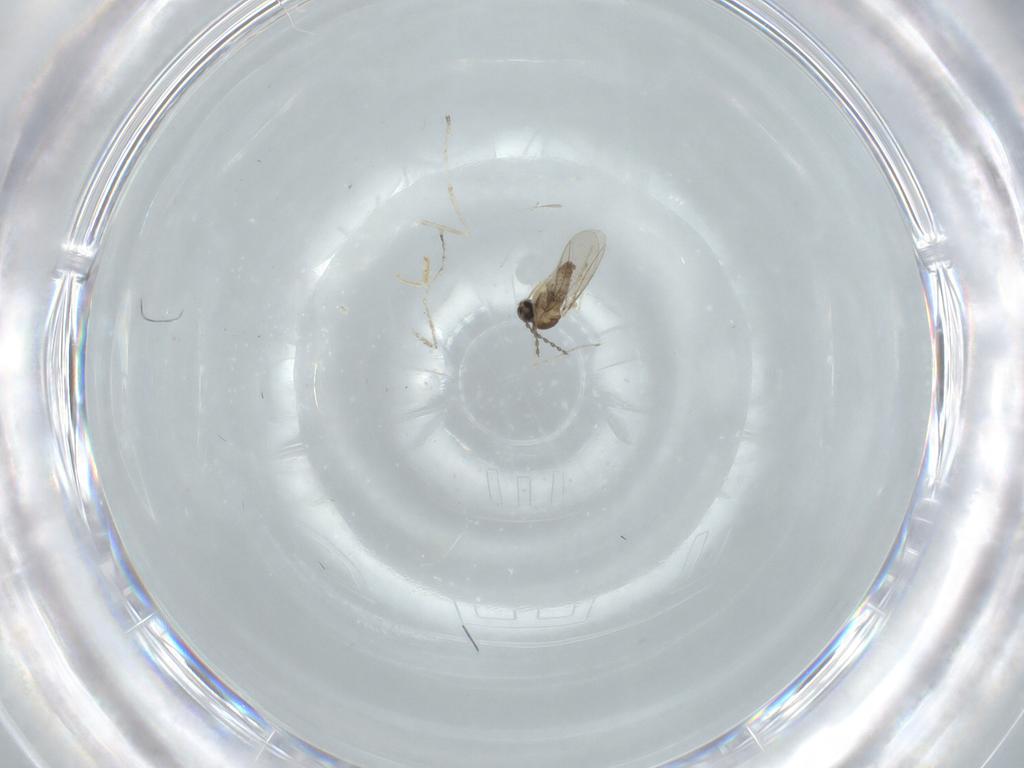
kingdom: Animalia
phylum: Arthropoda
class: Insecta
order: Diptera
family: Cecidomyiidae
